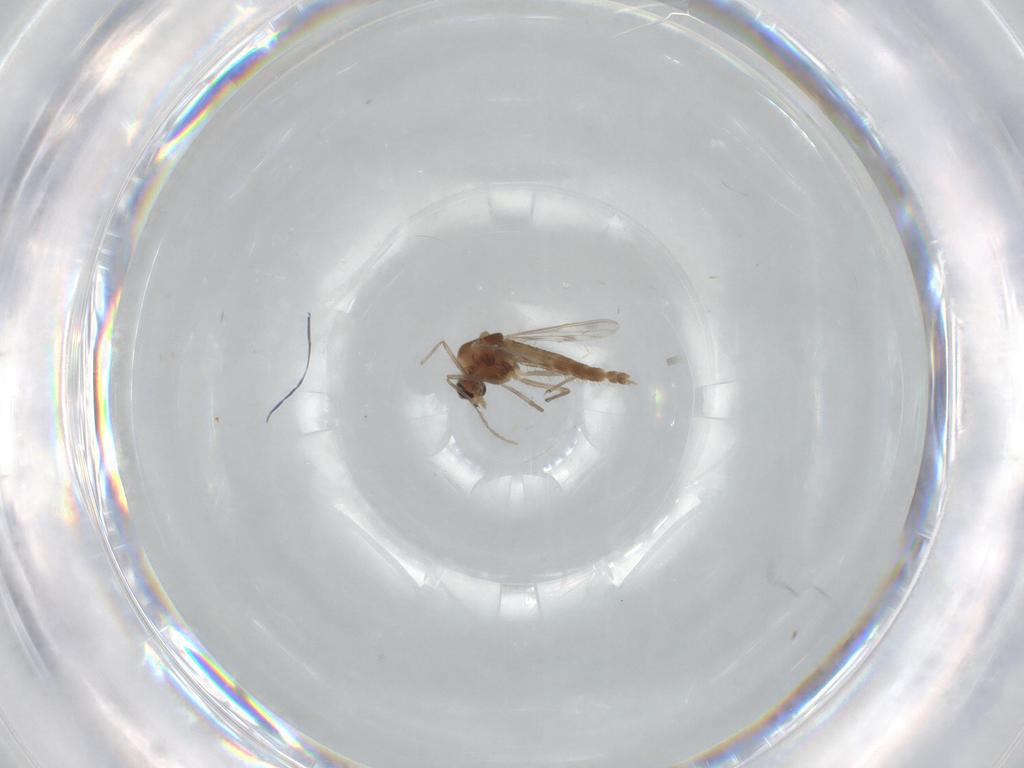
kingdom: Animalia
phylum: Arthropoda
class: Insecta
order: Diptera
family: Chironomidae
